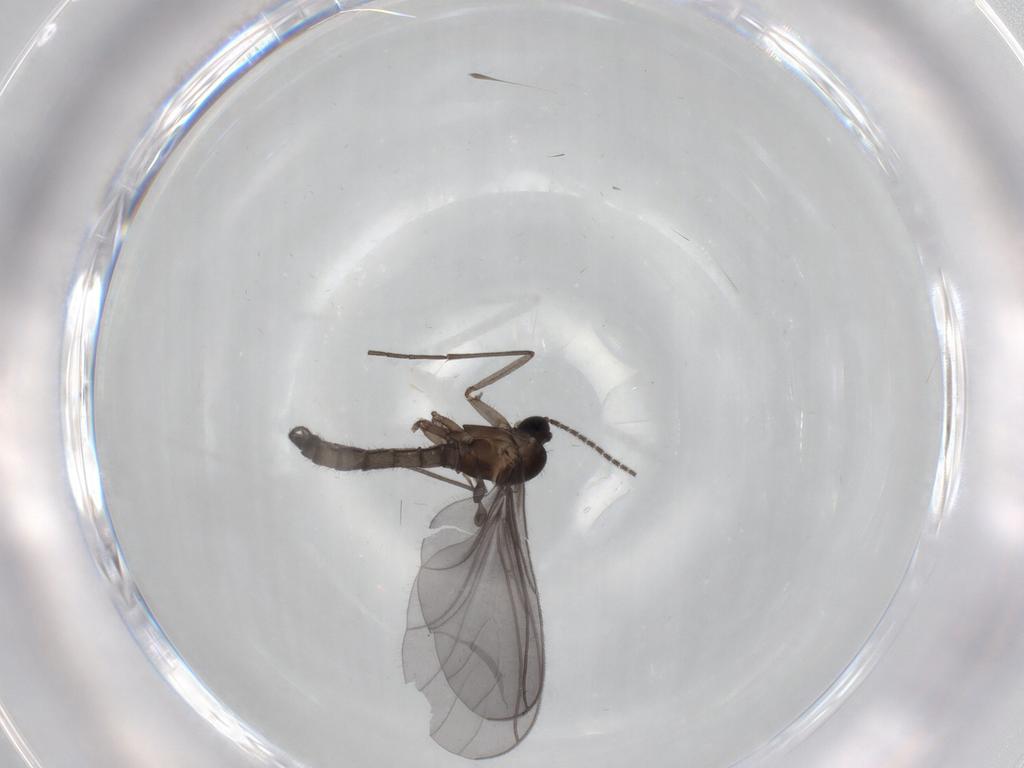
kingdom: Animalia
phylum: Arthropoda
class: Insecta
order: Diptera
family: Sciaridae
